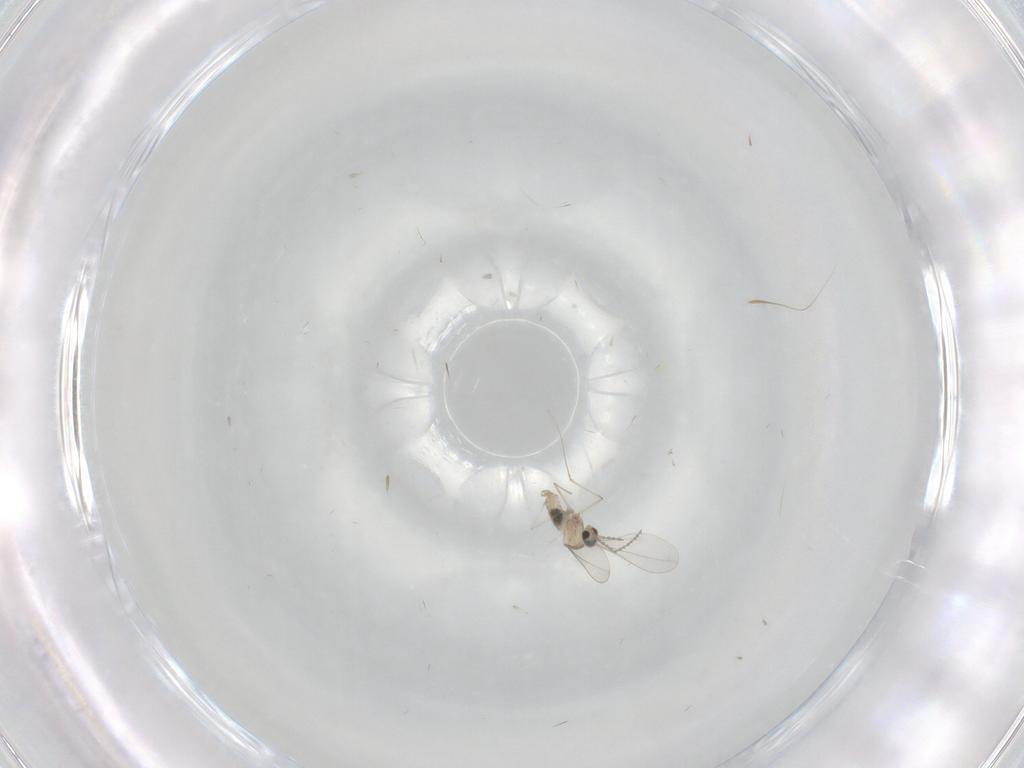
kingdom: Animalia
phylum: Arthropoda
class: Insecta
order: Diptera
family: Cecidomyiidae
